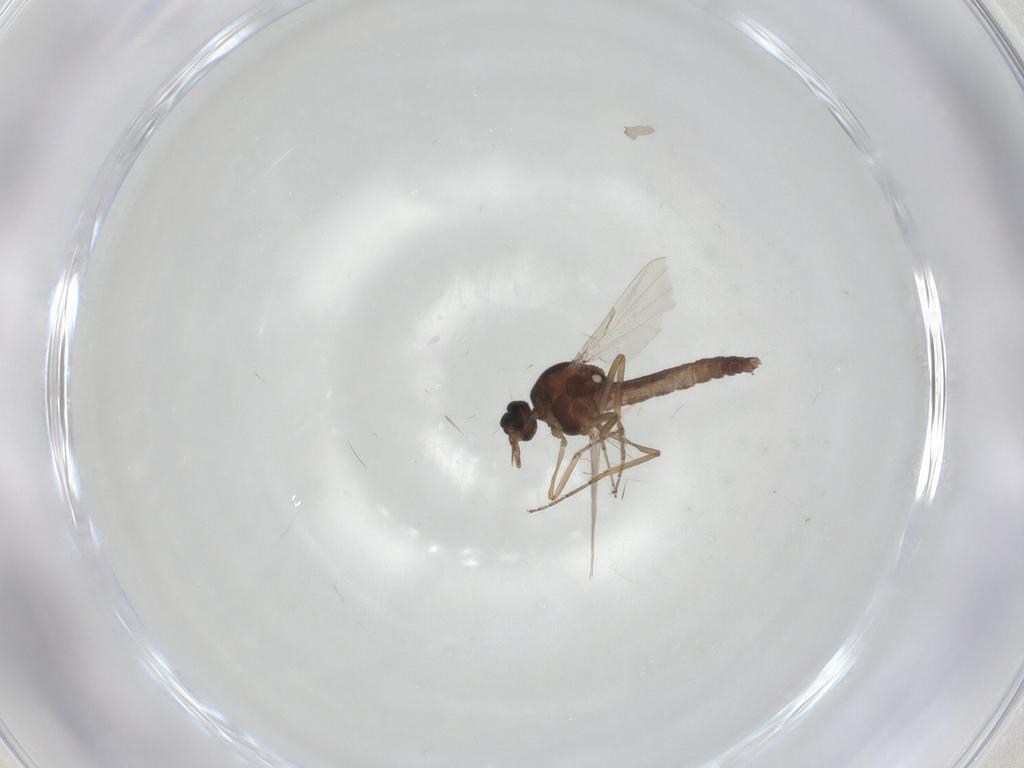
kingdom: Animalia
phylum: Arthropoda
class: Insecta
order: Diptera
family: Ceratopogonidae
